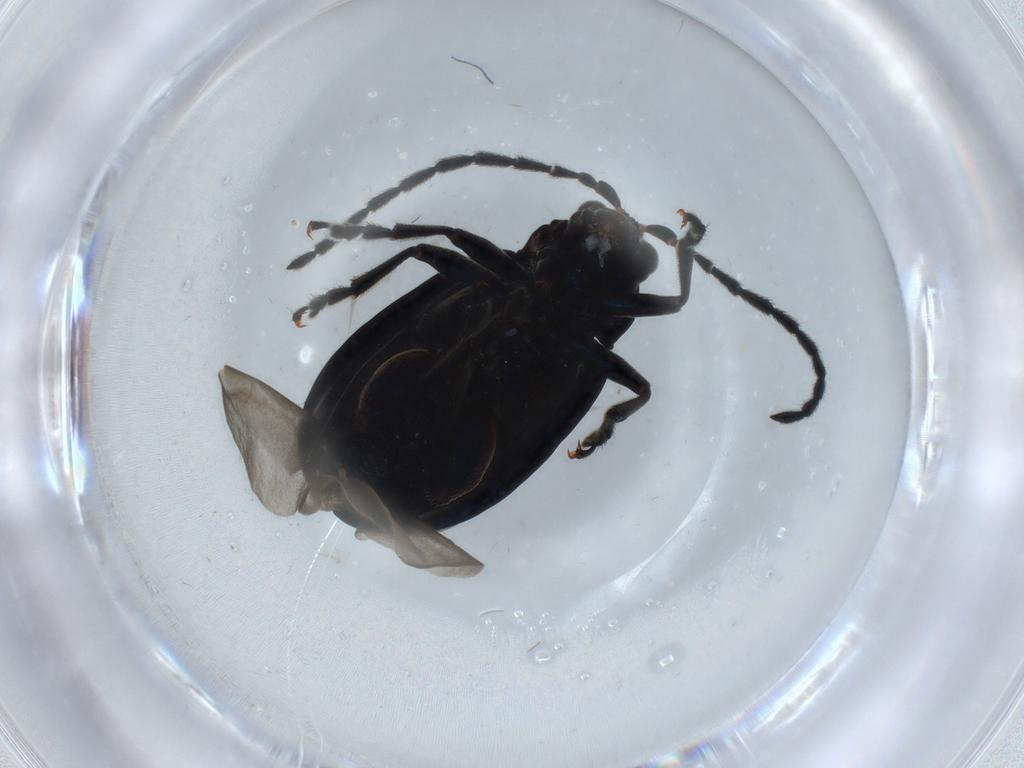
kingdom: Animalia
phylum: Arthropoda
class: Insecta
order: Coleoptera
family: Chrysomelidae
